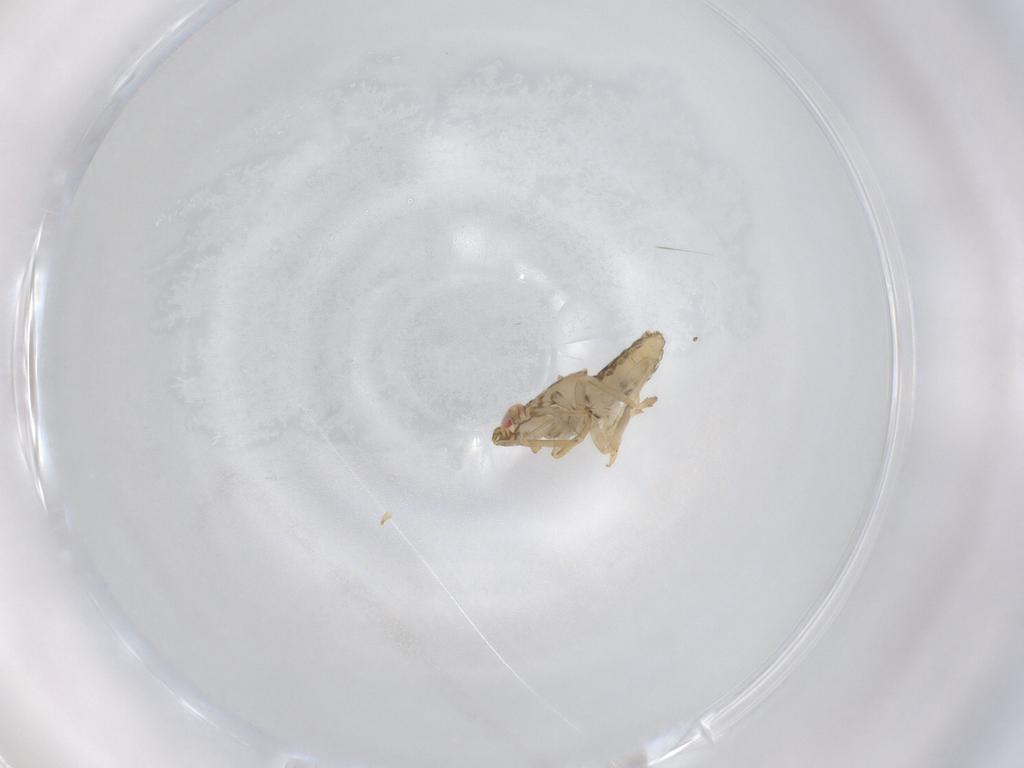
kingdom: Animalia
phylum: Arthropoda
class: Insecta
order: Hemiptera
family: Delphacidae
